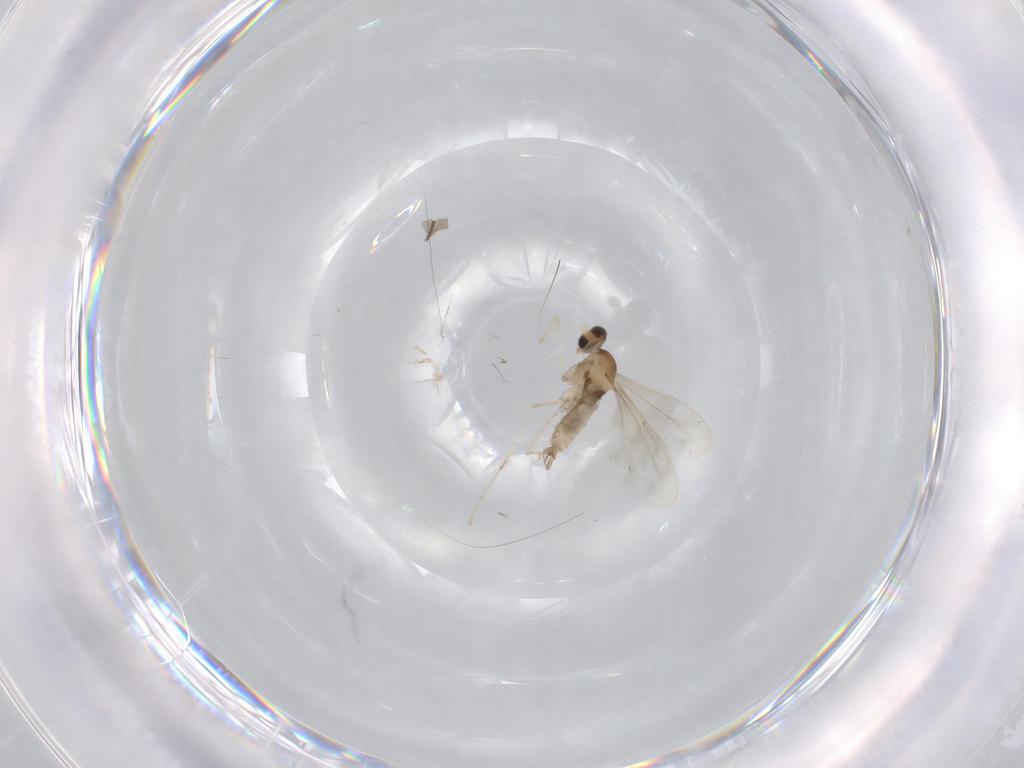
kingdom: Animalia
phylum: Arthropoda
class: Insecta
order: Diptera
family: Cecidomyiidae
